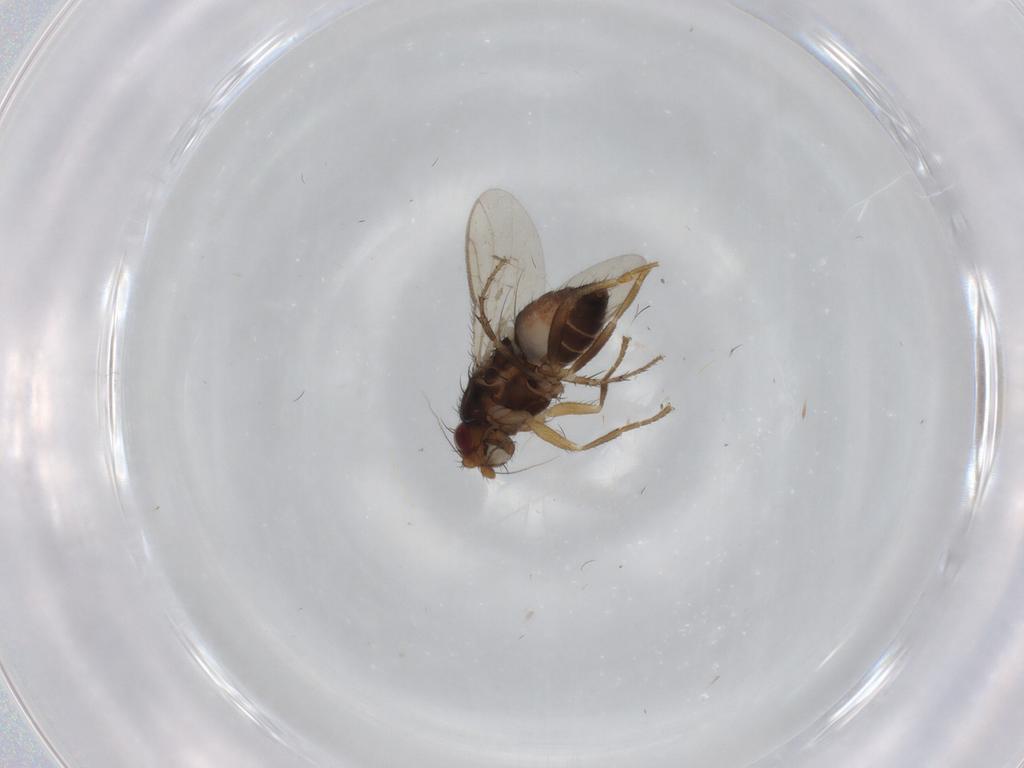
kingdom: Animalia
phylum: Arthropoda
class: Insecta
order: Diptera
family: Sphaeroceridae
